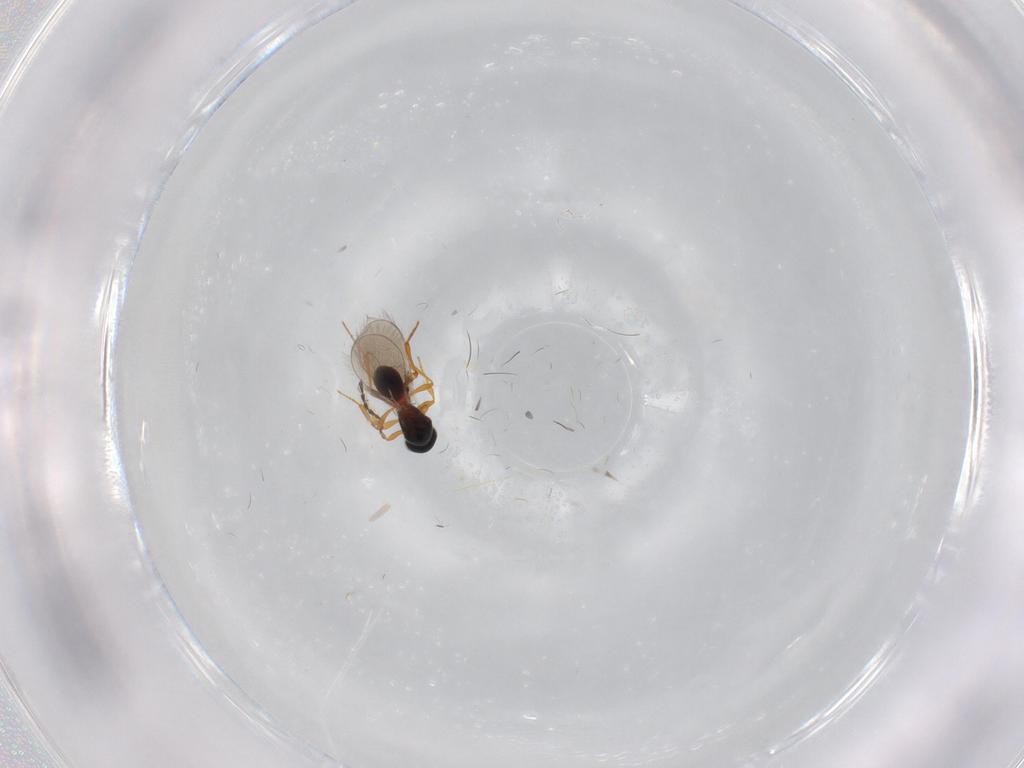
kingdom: Animalia
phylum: Arthropoda
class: Insecta
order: Hymenoptera
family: Platygastridae
